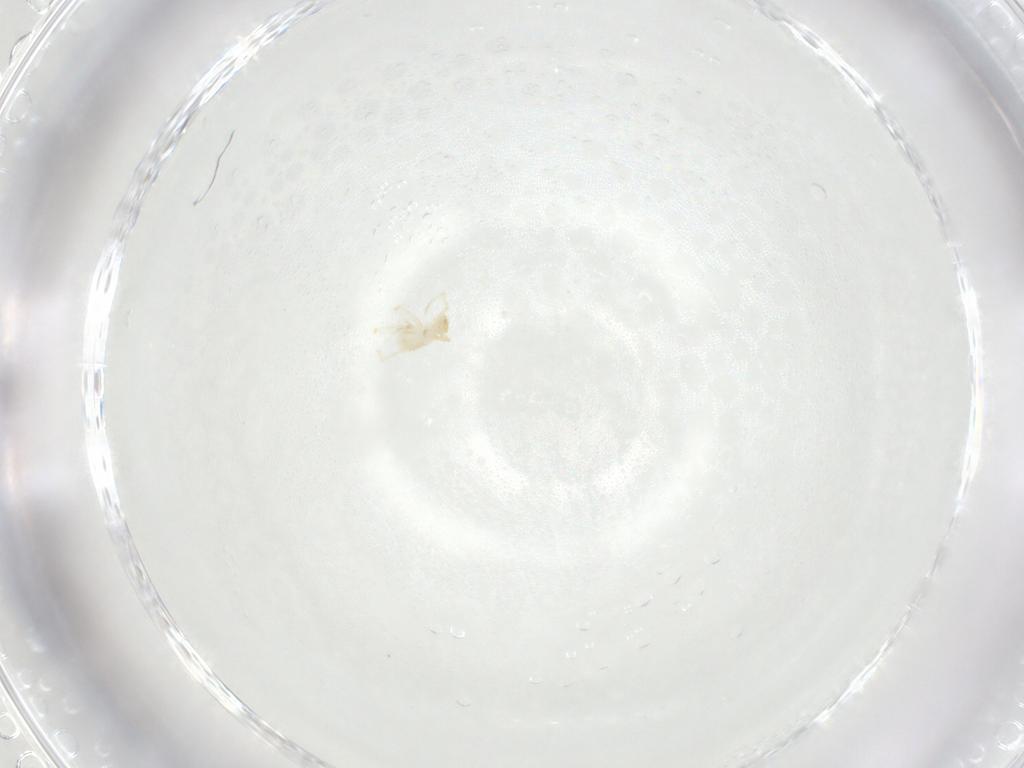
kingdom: Animalia
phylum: Arthropoda
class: Arachnida
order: Trombidiformes
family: Erythraeidae
